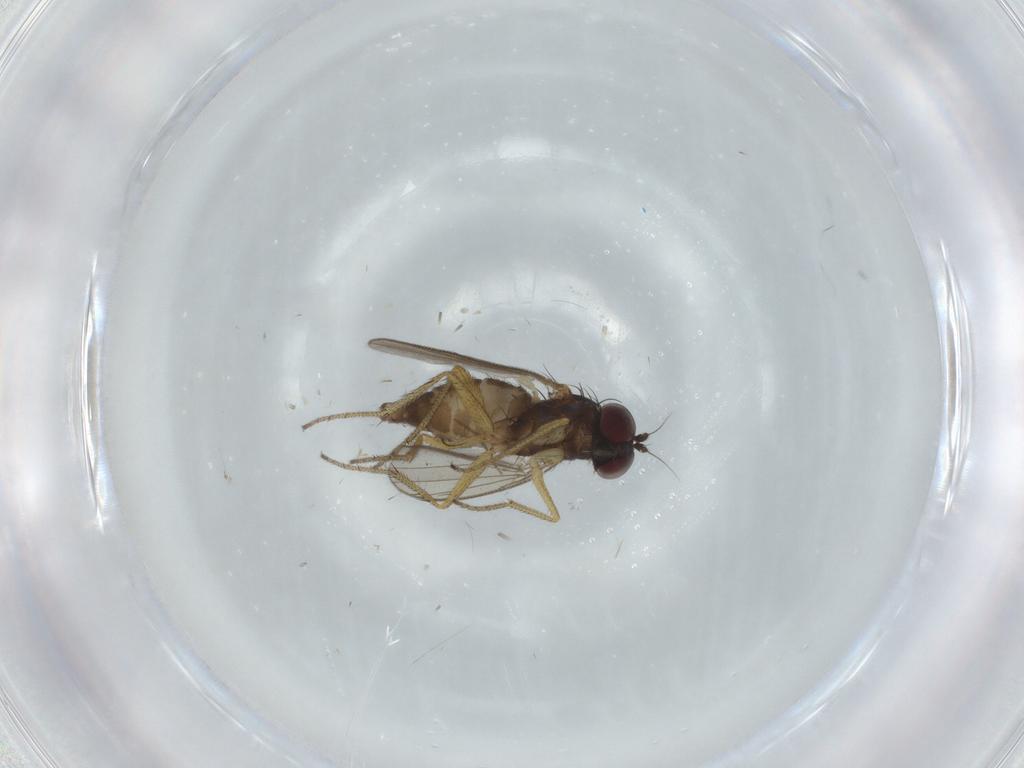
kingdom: Animalia
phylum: Arthropoda
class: Insecta
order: Diptera
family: Dolichopodidae
